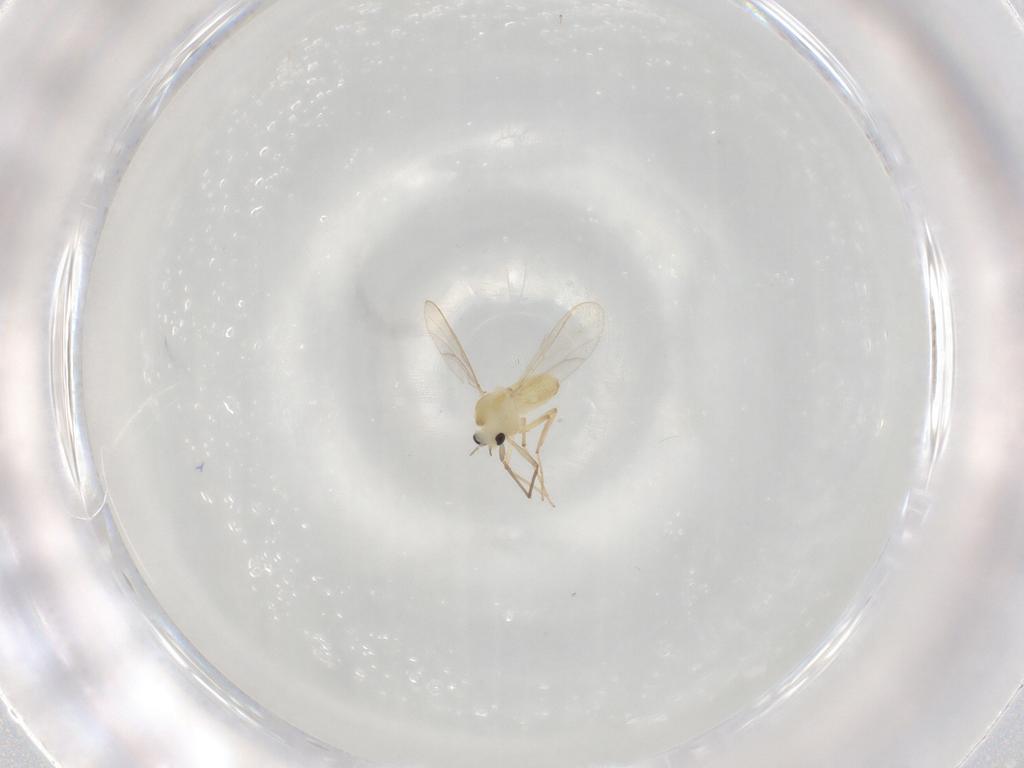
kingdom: Animalia
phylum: Arthropoda
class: Insecta
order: Diptera
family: Chironomidae
